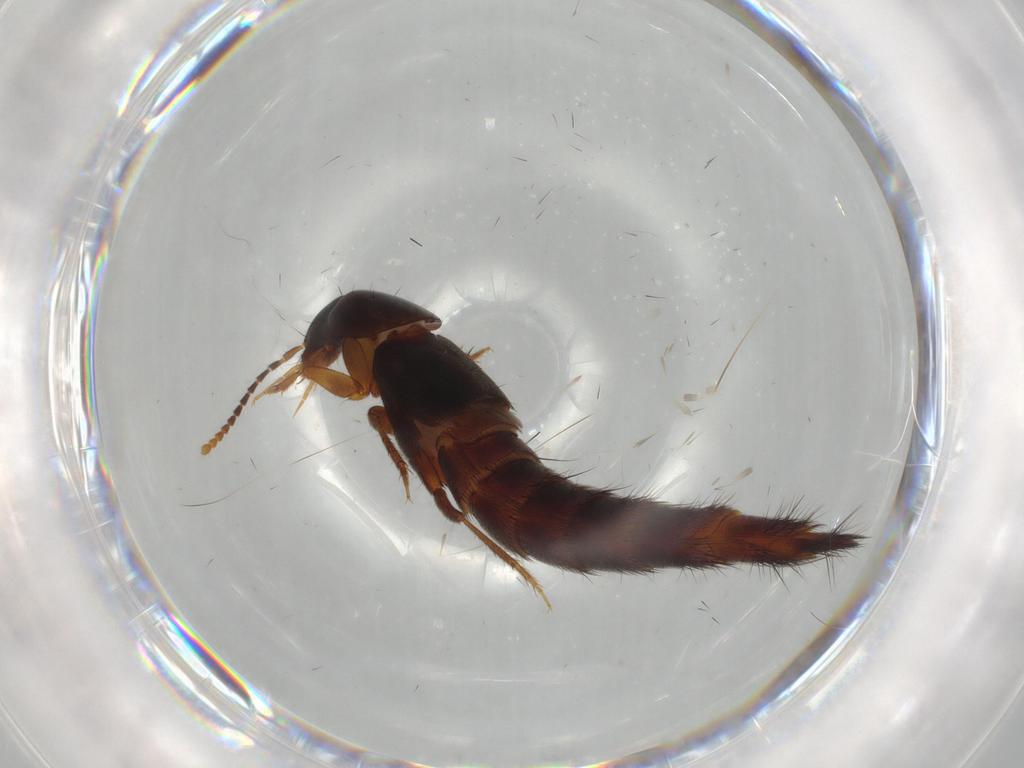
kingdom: Animalia
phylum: Arthropoda
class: Insecta
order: Coleoptera
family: Staphylinidae
